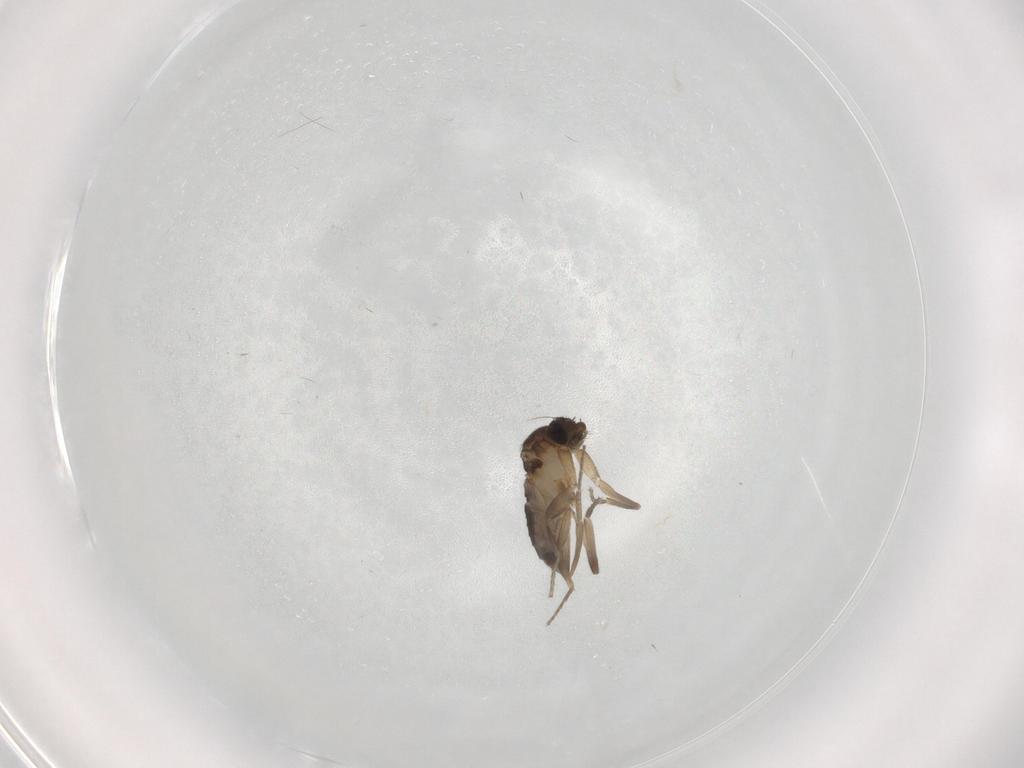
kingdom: Animalia
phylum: Arthropoda
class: Insecta
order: Diptera
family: Phoridae
